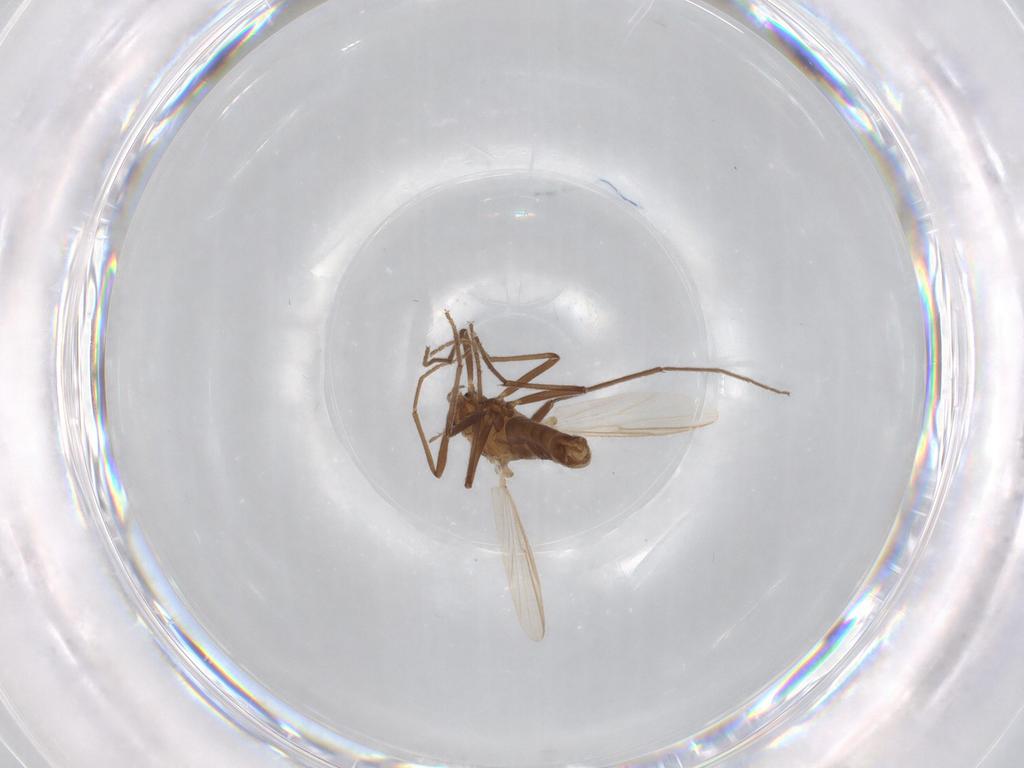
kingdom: Animalia
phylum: Arthropoda
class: Insecta
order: Diptera
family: Chironomidae
